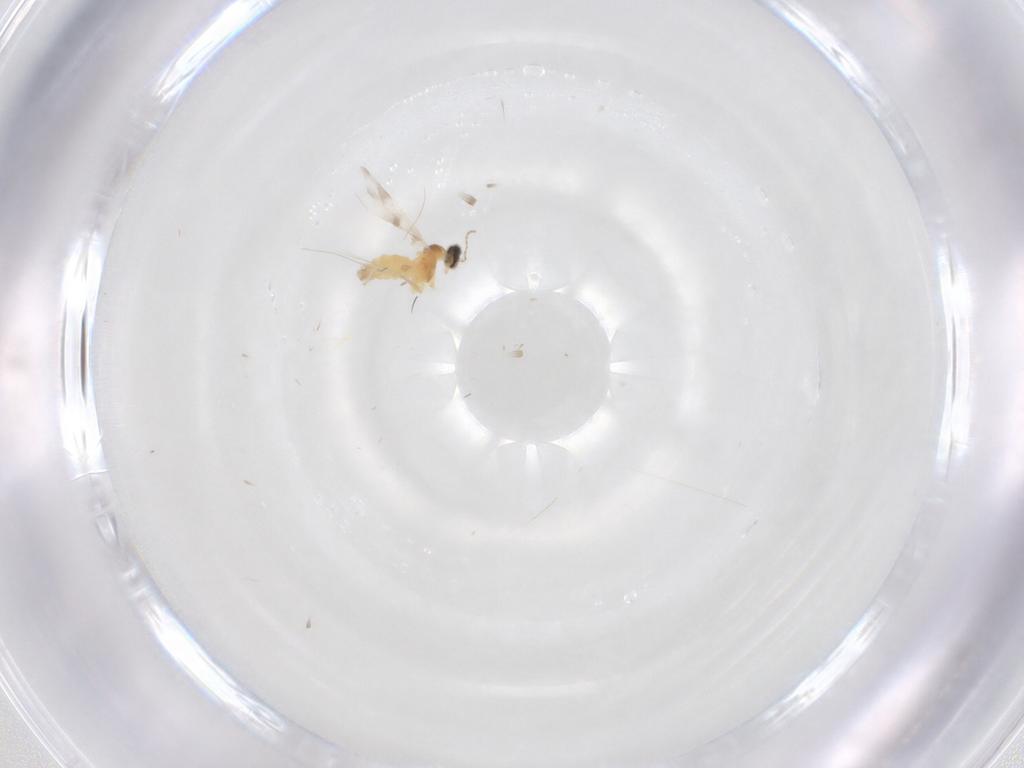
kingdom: Animalia
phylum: Arthropoda
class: Insecta
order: Diptera
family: Cecidomyiidae
